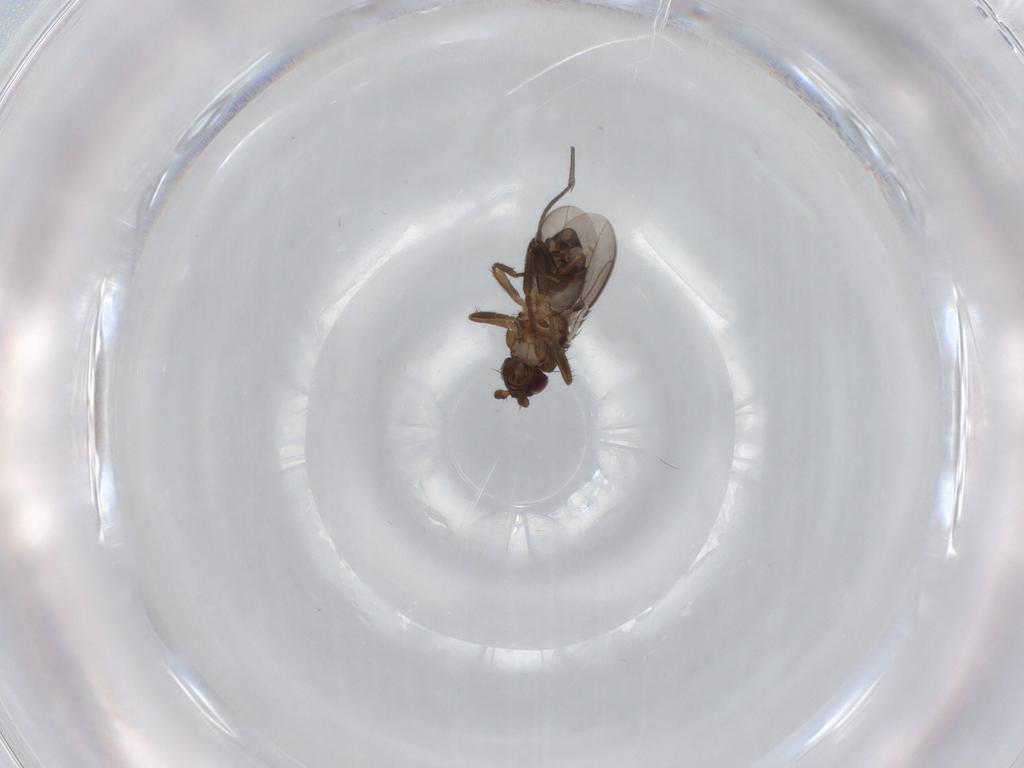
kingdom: Animalia
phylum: Arthropoda
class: Insecta
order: Diptera
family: Sphaeroceridae
